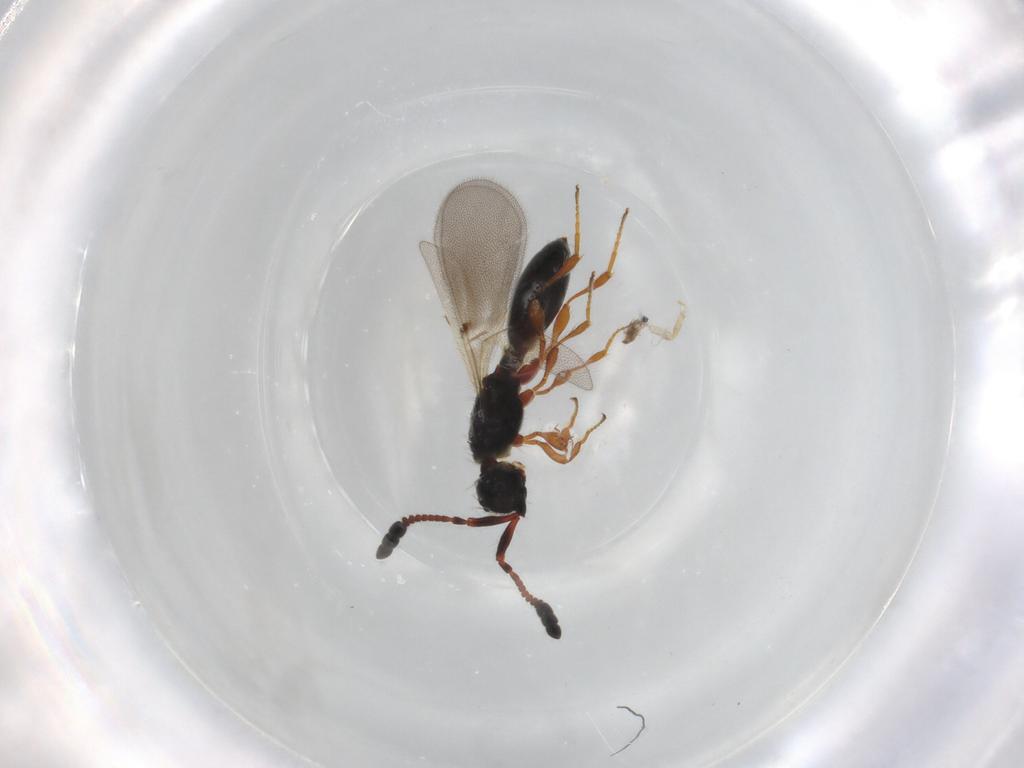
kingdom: Animalia
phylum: Arthropoda
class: Insecta
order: Hymenoptera
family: Diapriidae
